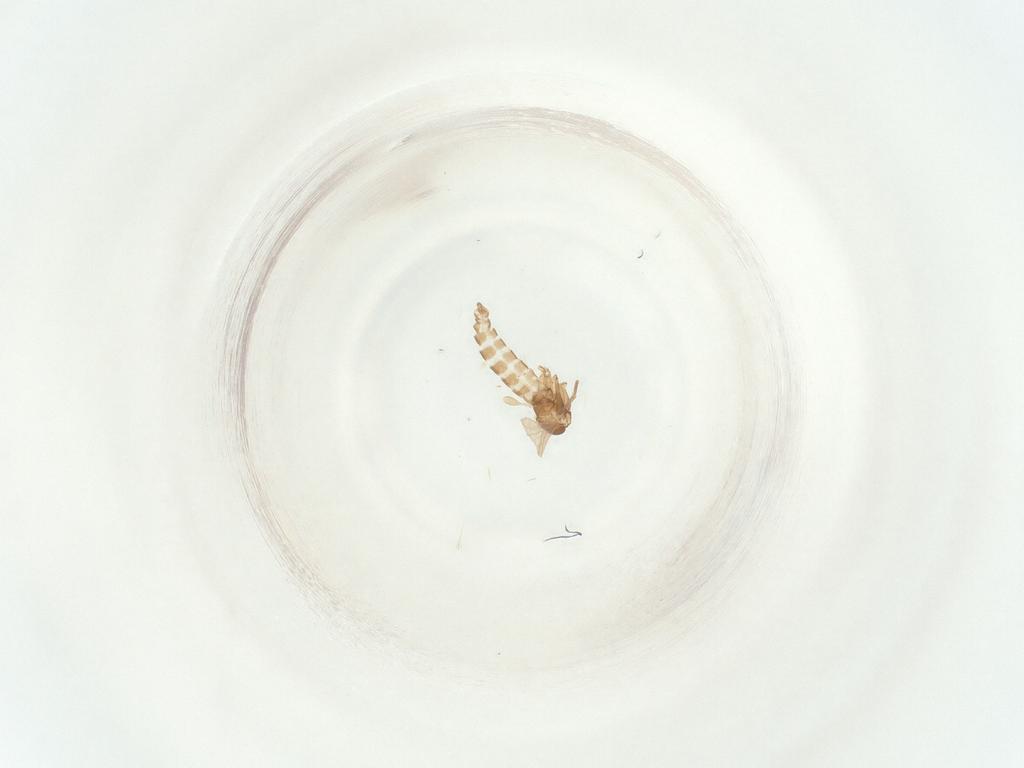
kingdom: Animalia
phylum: Arthropoda
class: Insecta
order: Diptera
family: Sciaridae
